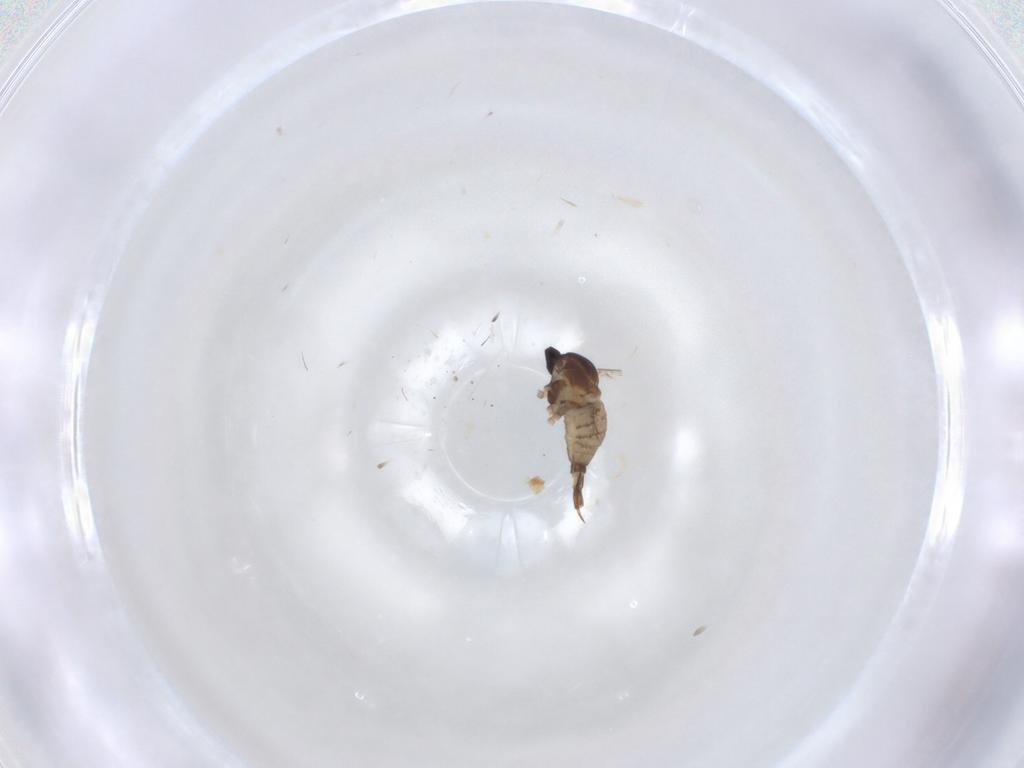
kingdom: Animalia
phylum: Arthropoda
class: Insecta
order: Diptera
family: Cecidomyiidae
